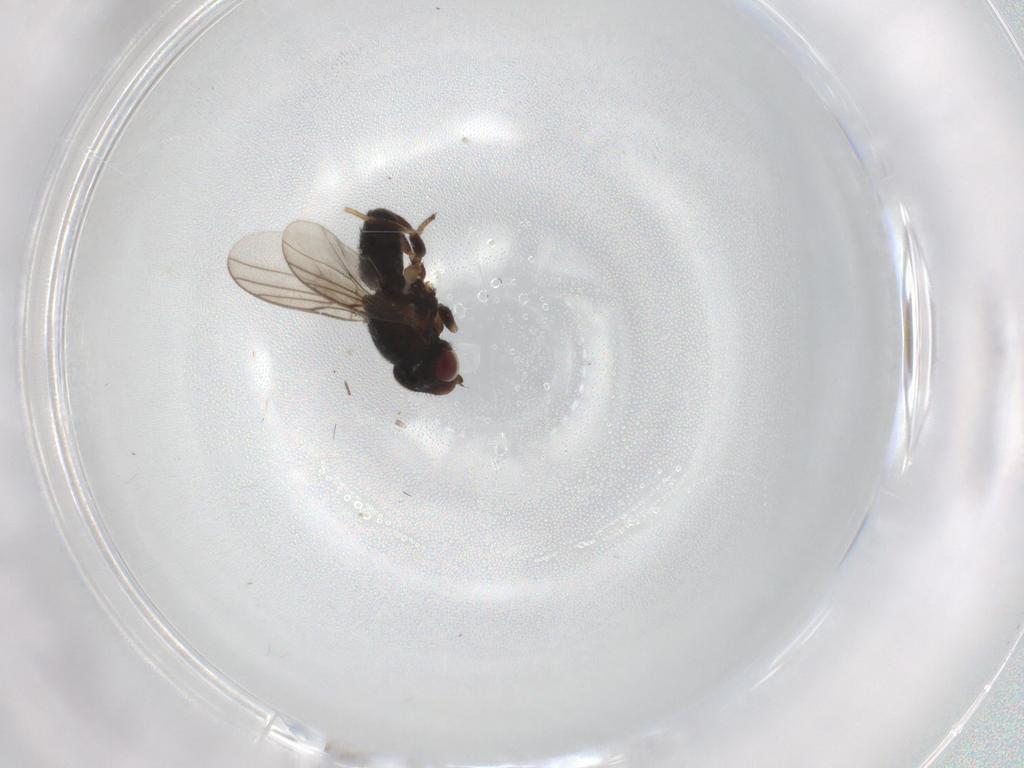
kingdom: Animalia
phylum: Arthropoda
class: Insecta
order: Diptera
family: Chloropidae
